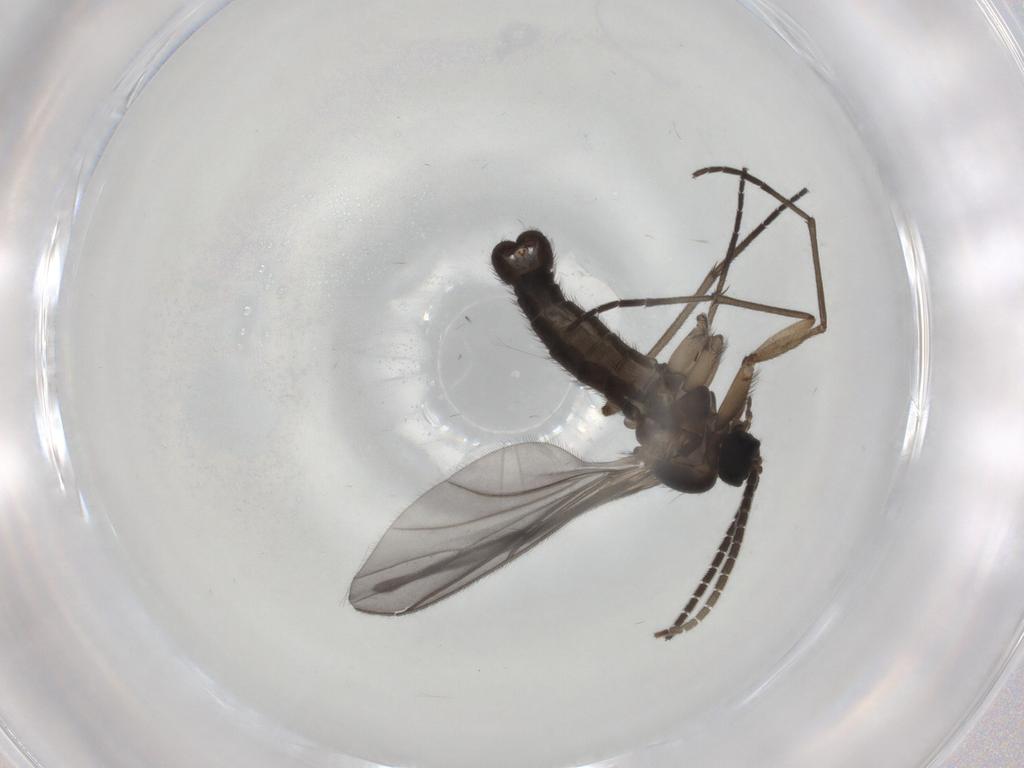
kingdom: Animalia
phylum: Arthropoda
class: Insecta
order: Diptera
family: Sciaridae
